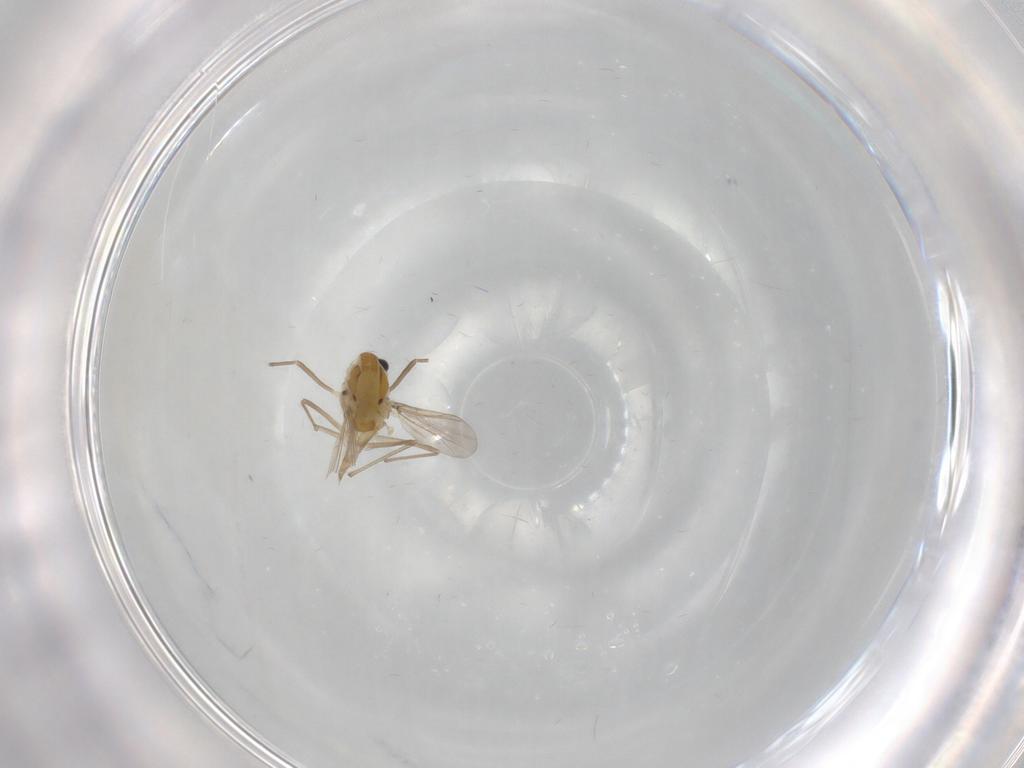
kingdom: Animalia
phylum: Arthropoda
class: Insecta
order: Diptera
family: Chironomidae
